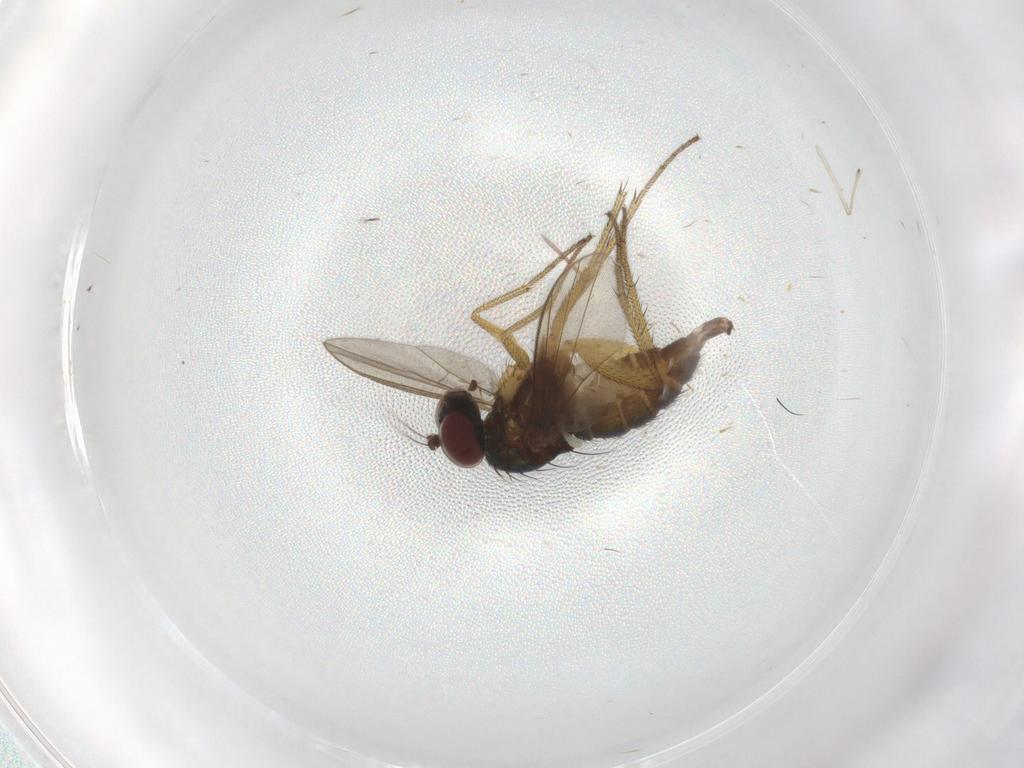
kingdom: Animalia
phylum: Arthropoda
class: Insecta
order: Diptera
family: Dolichopodidae
